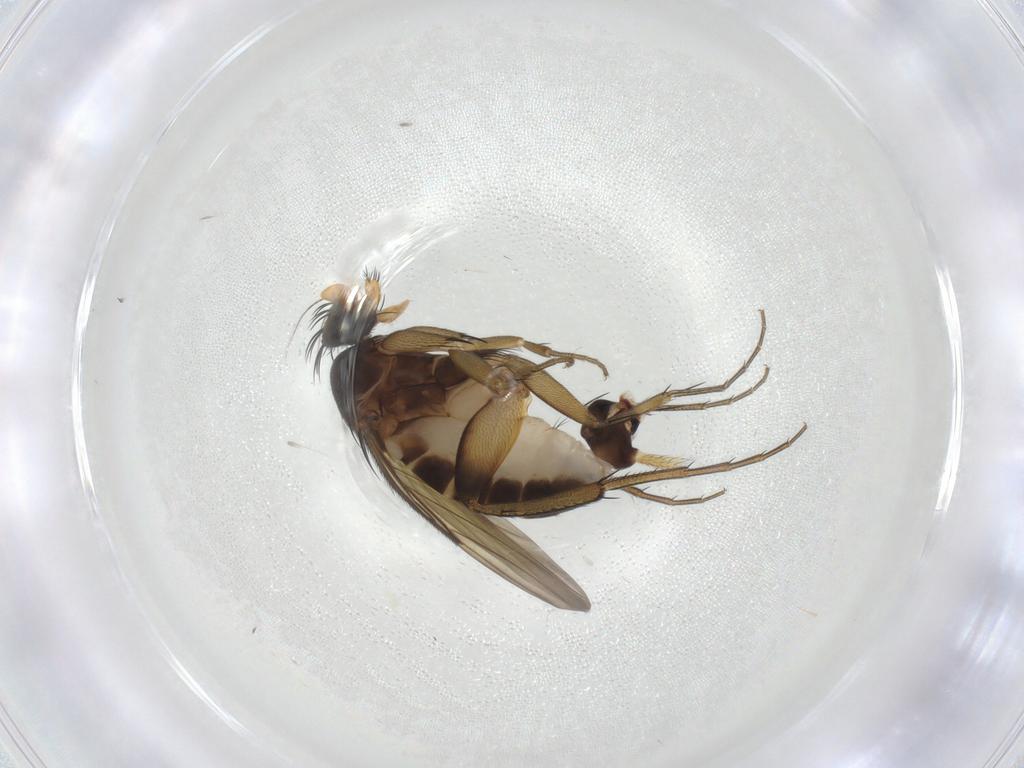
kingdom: Animalia
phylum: Arthropoda
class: Insecta
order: Diptera
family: Phoridae
